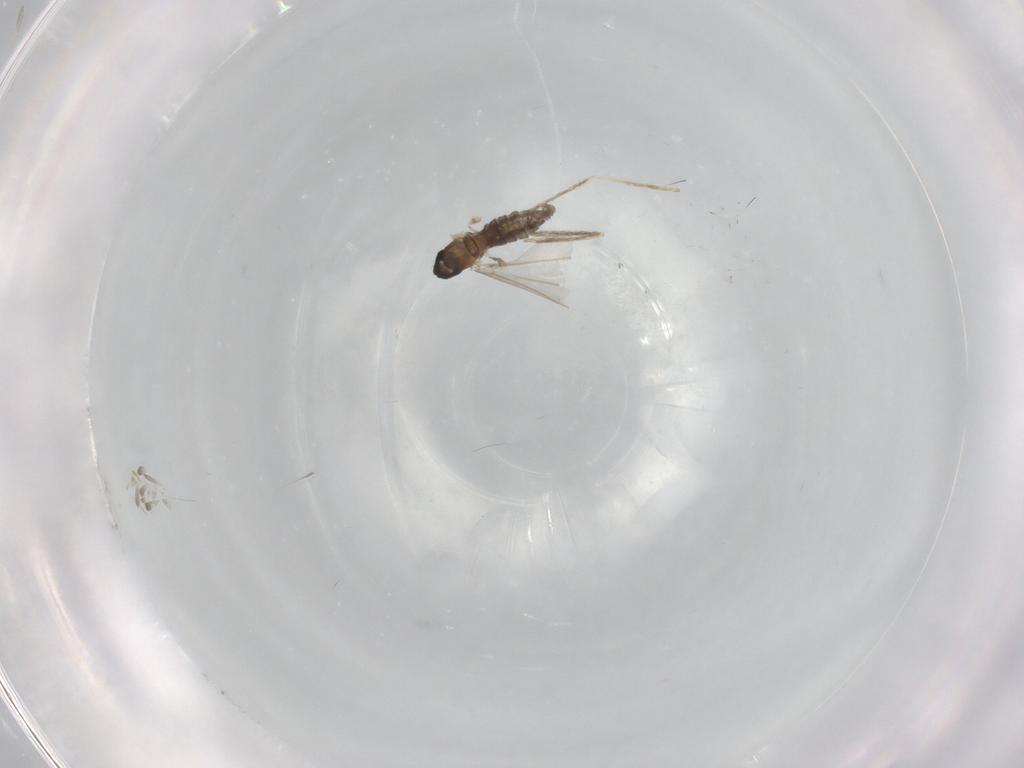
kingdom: Animalia
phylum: Arthropoda
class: Insecta
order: Diptera
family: Cecidomyiidae
